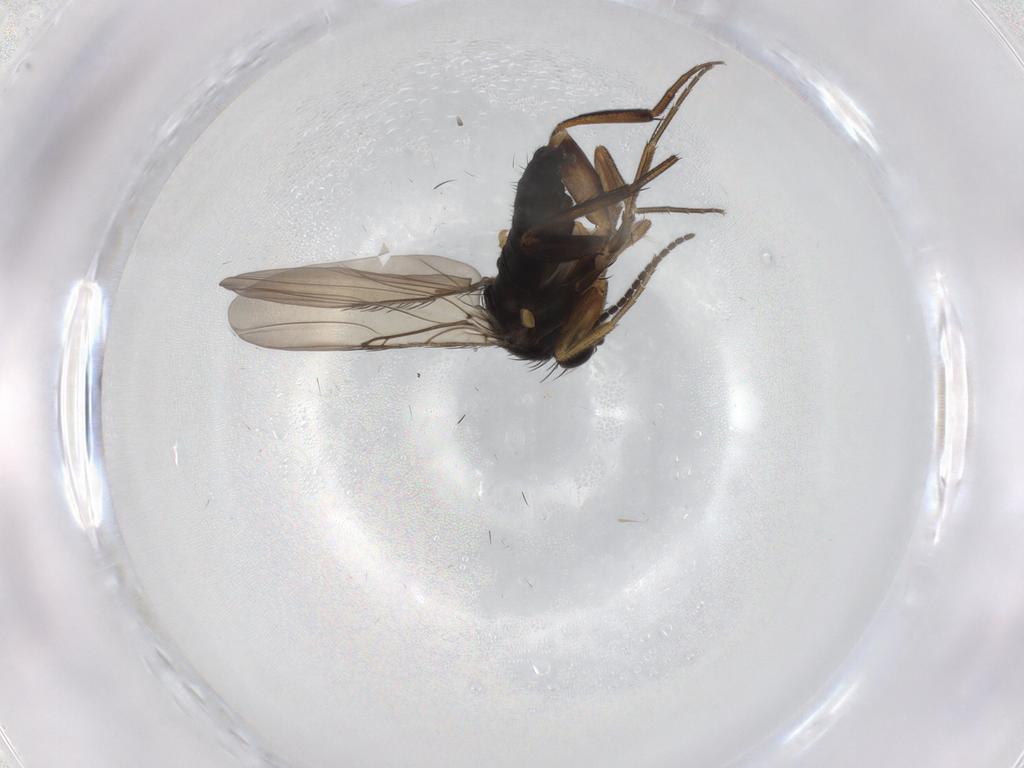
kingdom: Animalia
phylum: Arthropoda
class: Insecta
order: Diptera
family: Phoridae
